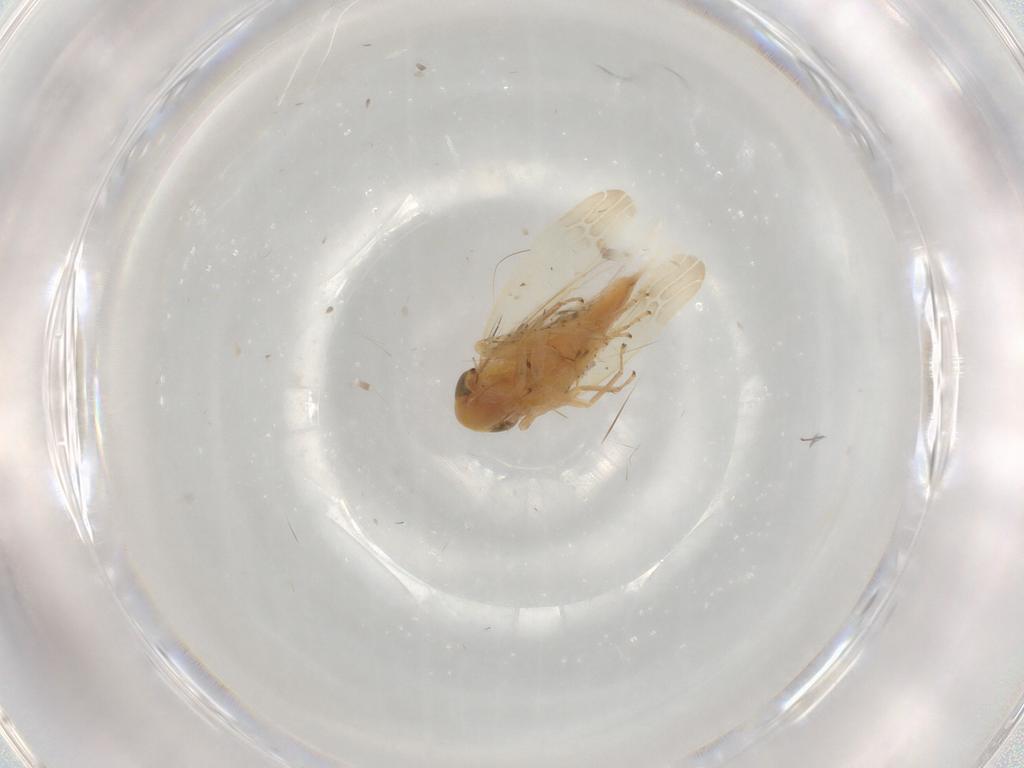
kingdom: Animalia
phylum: Arthropoda
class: Insecta
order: Hemiptera
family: Cicadellidae
